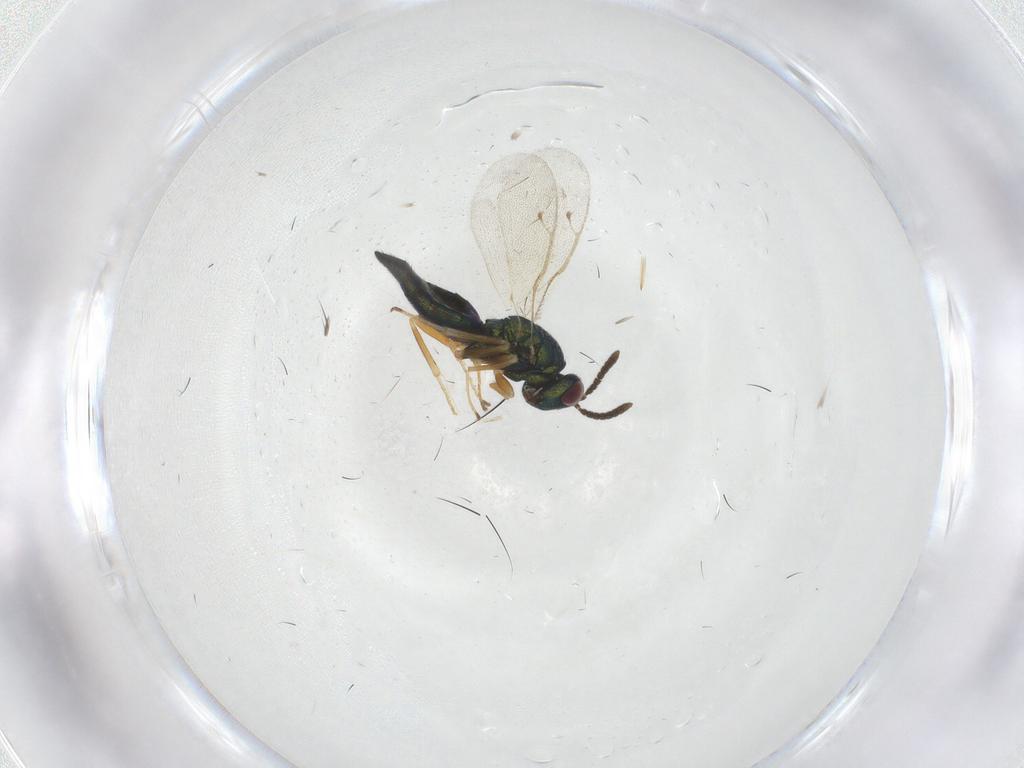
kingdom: Animalia
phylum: Arthropoda
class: Insecta
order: Hymenoptera
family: Pteromalidae
